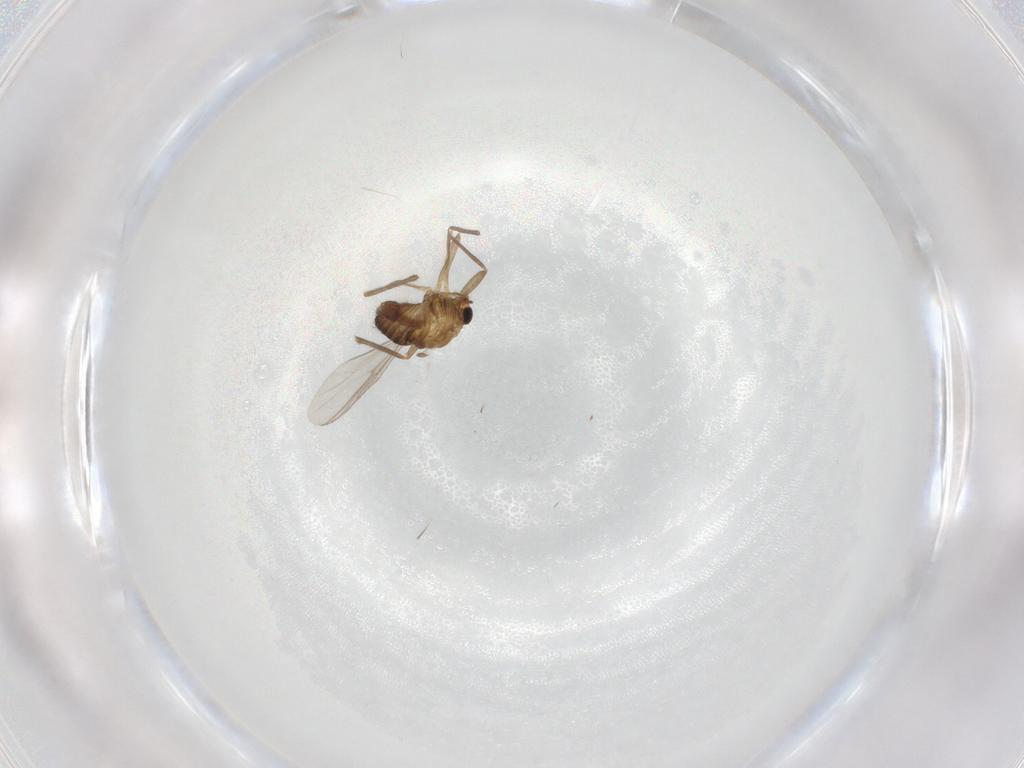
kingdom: Animalia
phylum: Arthropoda
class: Insecta
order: Diptera
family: Chironomidae
